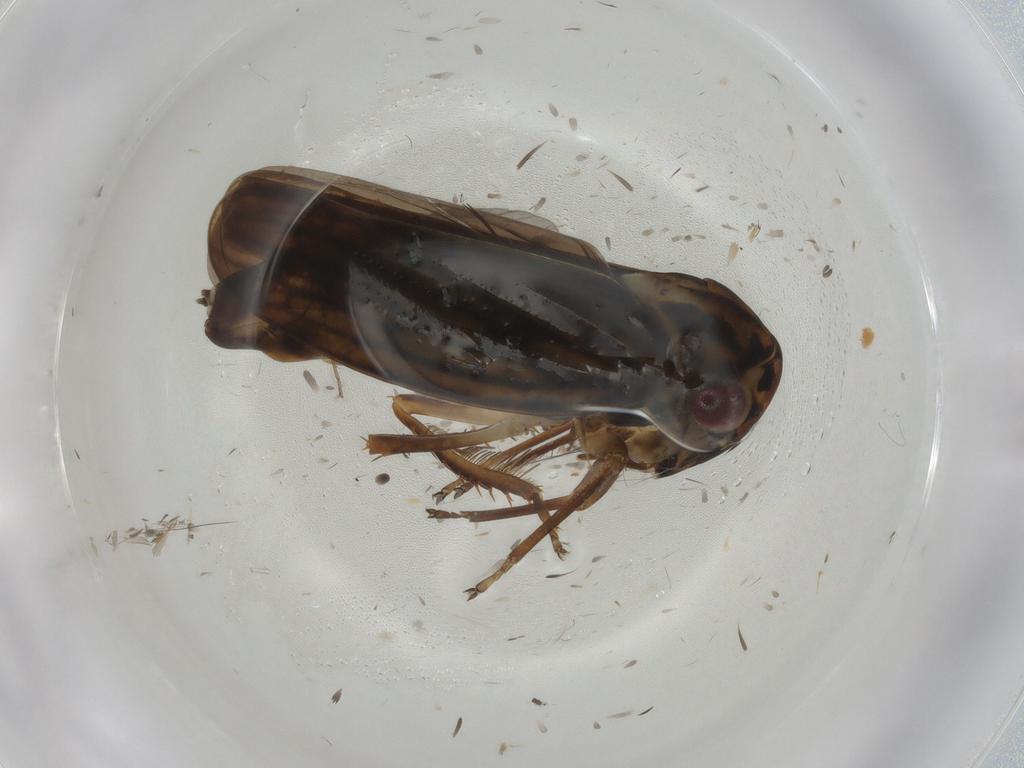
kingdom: Animalia
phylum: Arthropoda
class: Insecta
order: Hemiptera
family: Cicadellidae
